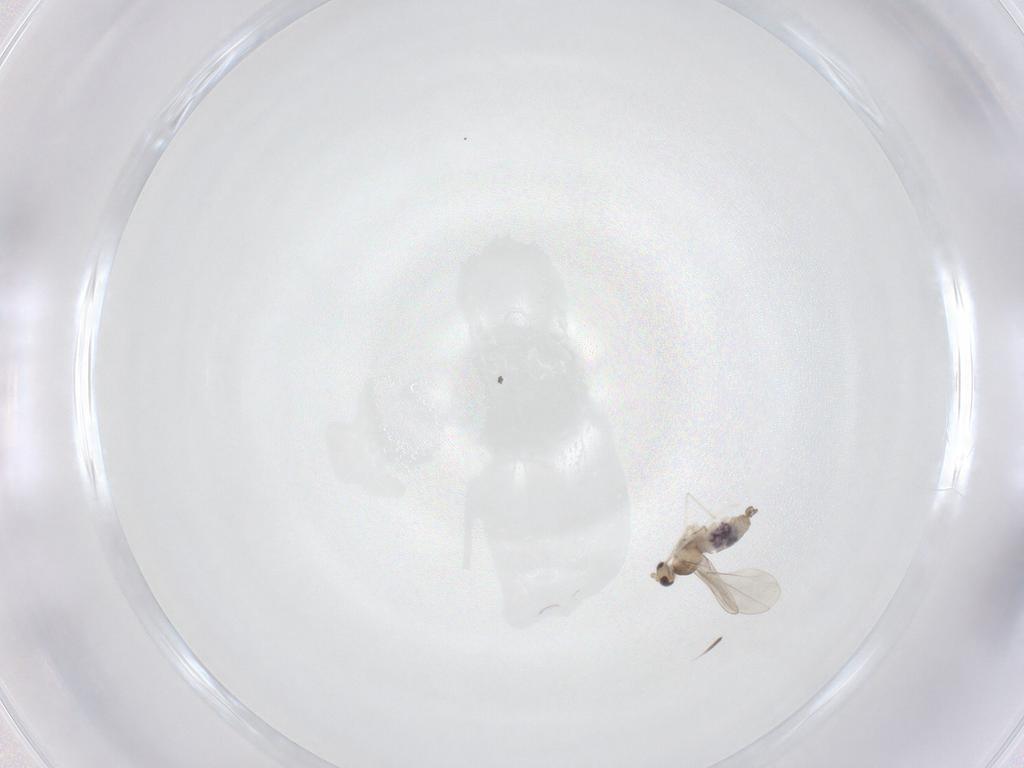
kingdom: Animalia
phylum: Arthropoda
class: Insecta
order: Diptera
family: Cecidomyiidae
